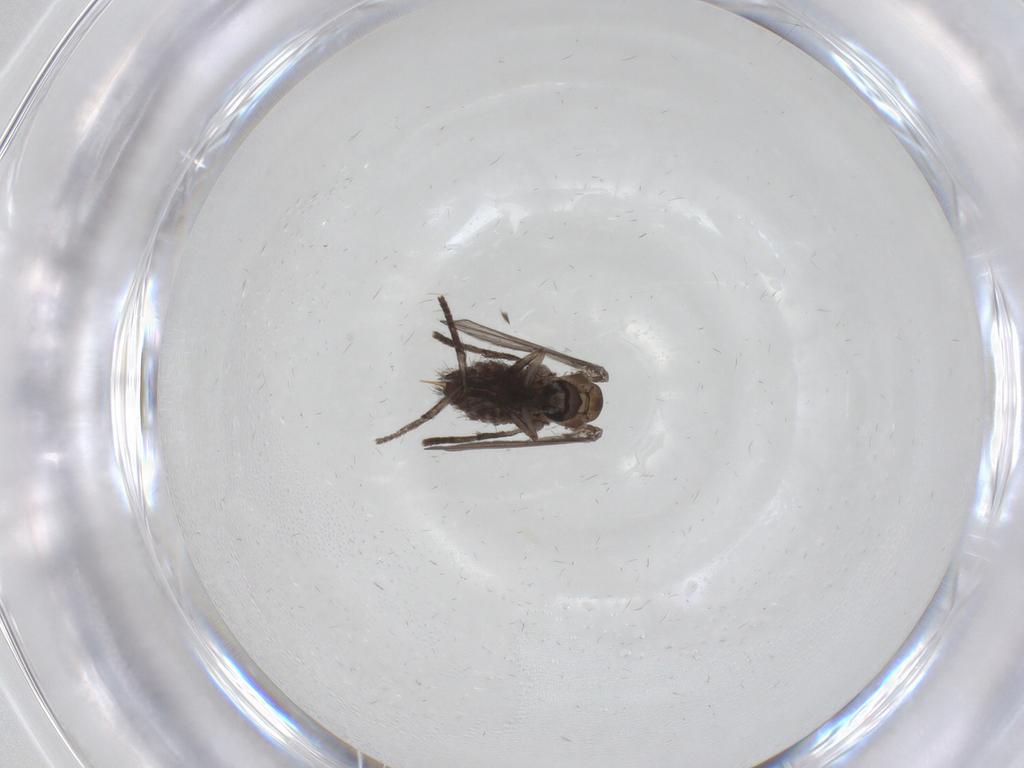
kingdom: Animalia
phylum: Arthropoda
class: Insecta
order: Diptera
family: Psychodidae
